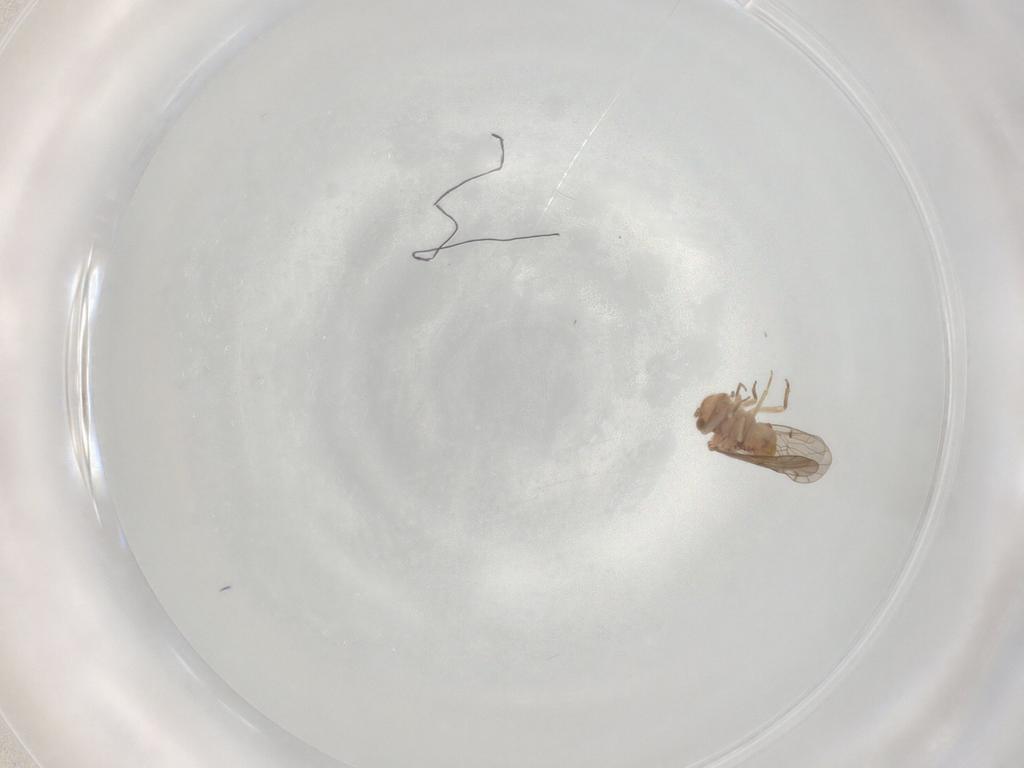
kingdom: Animalia
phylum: Arthropoda
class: Insecta
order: Psocodea
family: Ectopsocidae
